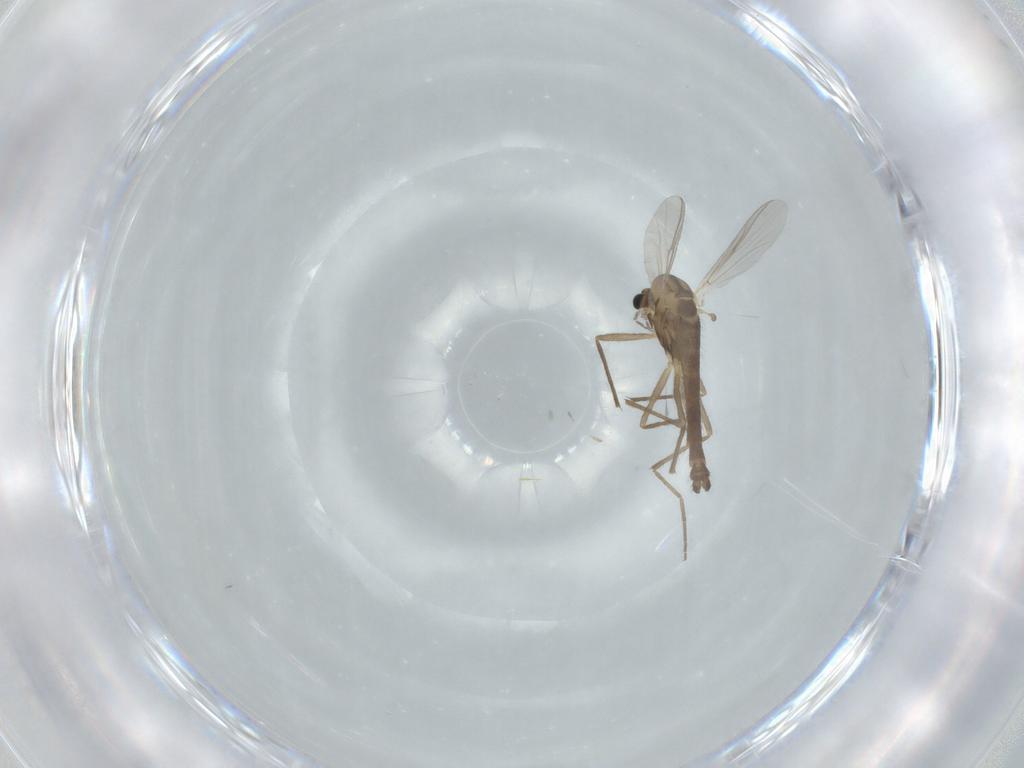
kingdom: Animalia
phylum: Arthropoda
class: Insecta
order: Diptera
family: Chironomidae
